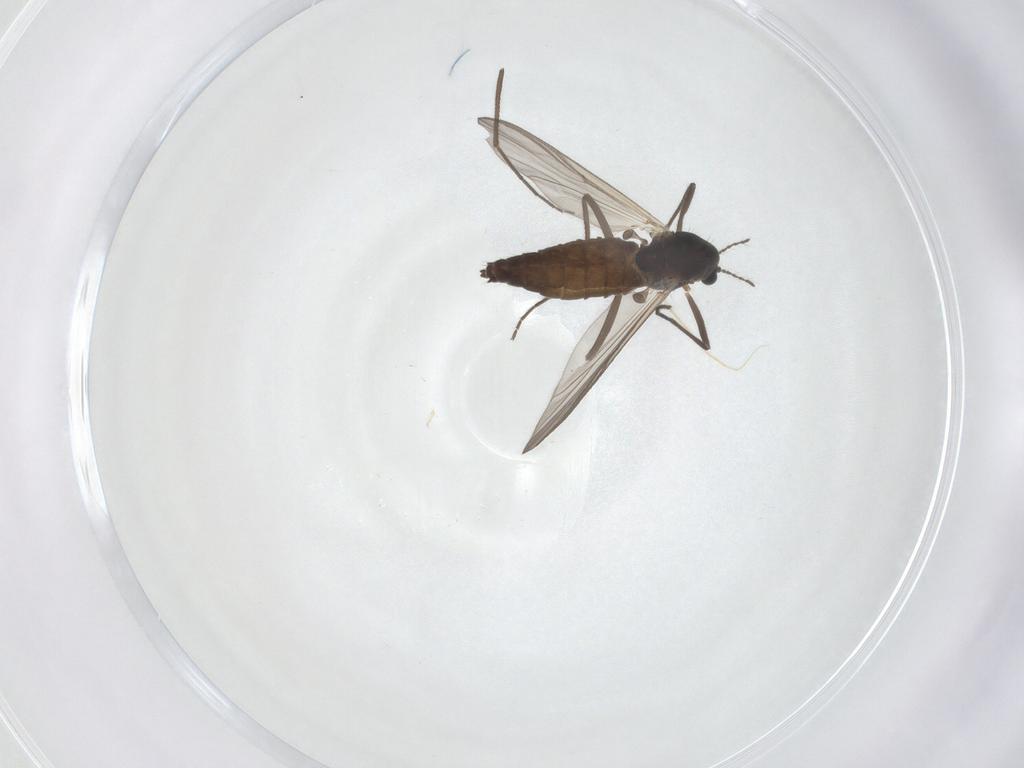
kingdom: Animalia
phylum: Arthropoda
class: Insecta
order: Diptera
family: Chironomidae
